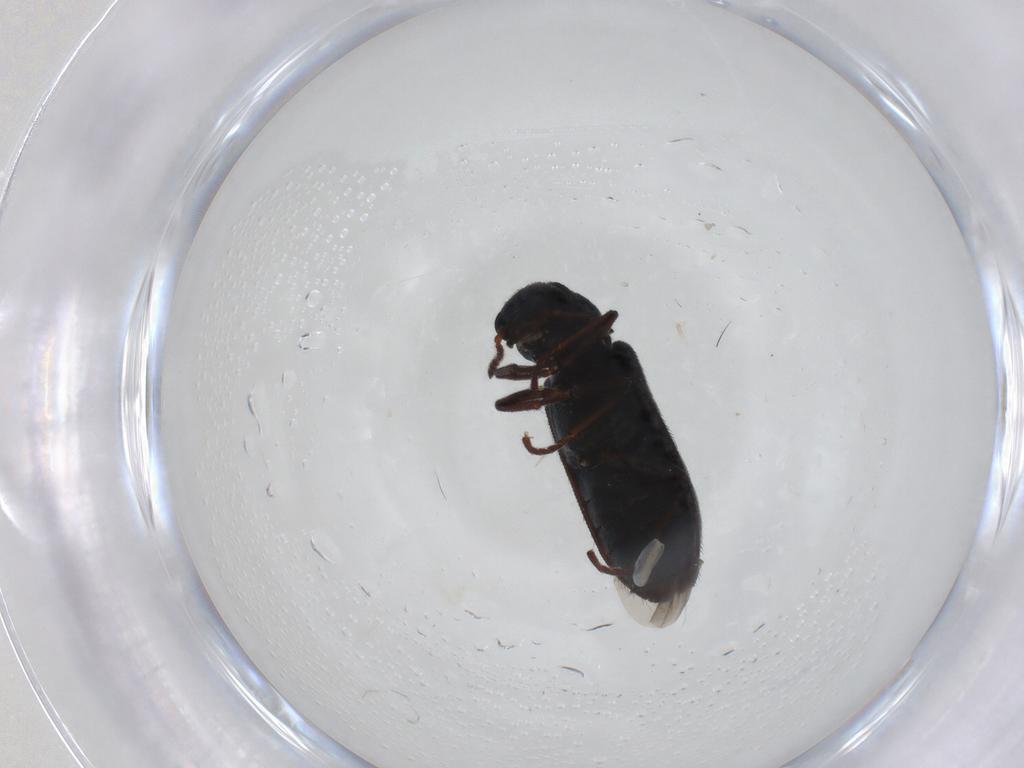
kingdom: Animalia
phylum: Arthropoda
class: Insecta
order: Coleoptera
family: Melyridae
